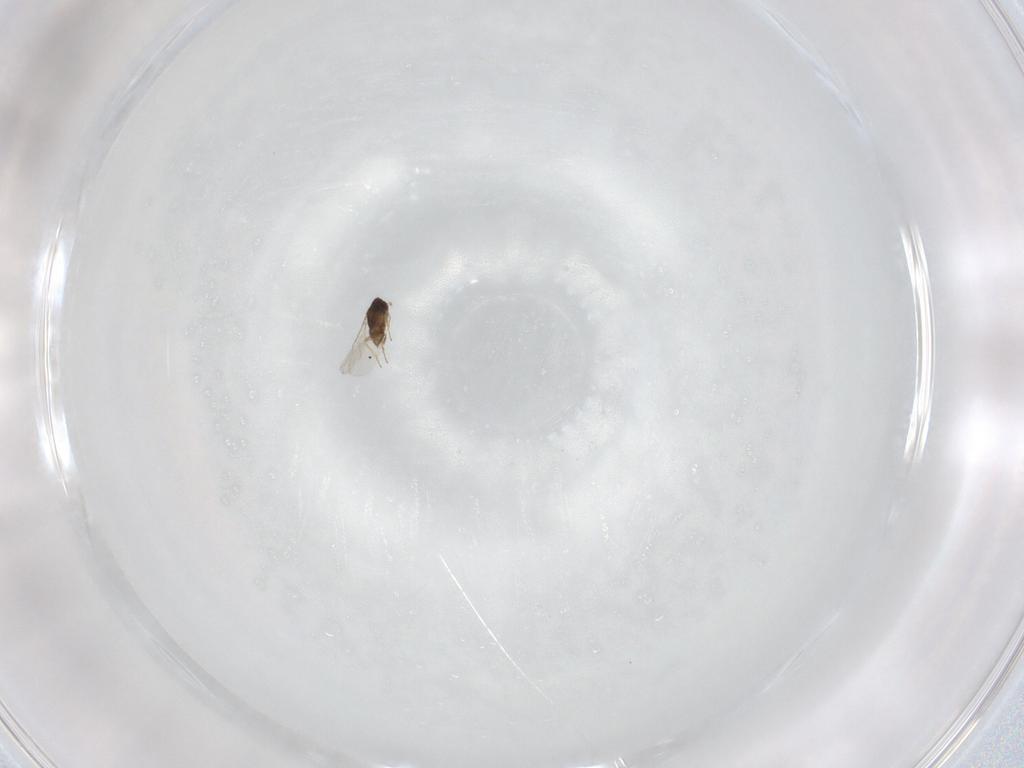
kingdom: Animalia
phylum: Arthropoda
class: Insecta
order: Hymenoptera
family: Encyrtidae
